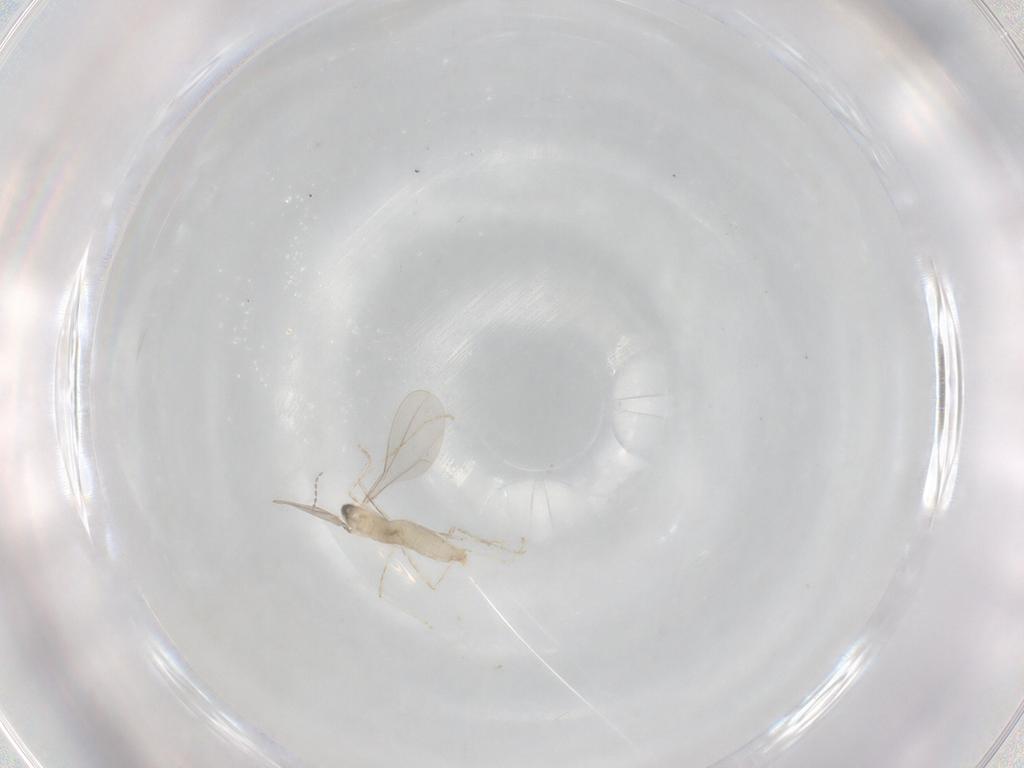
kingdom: Animalia
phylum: Arthropoda
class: Insecta
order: Diptera
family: Cecidomyiidae
